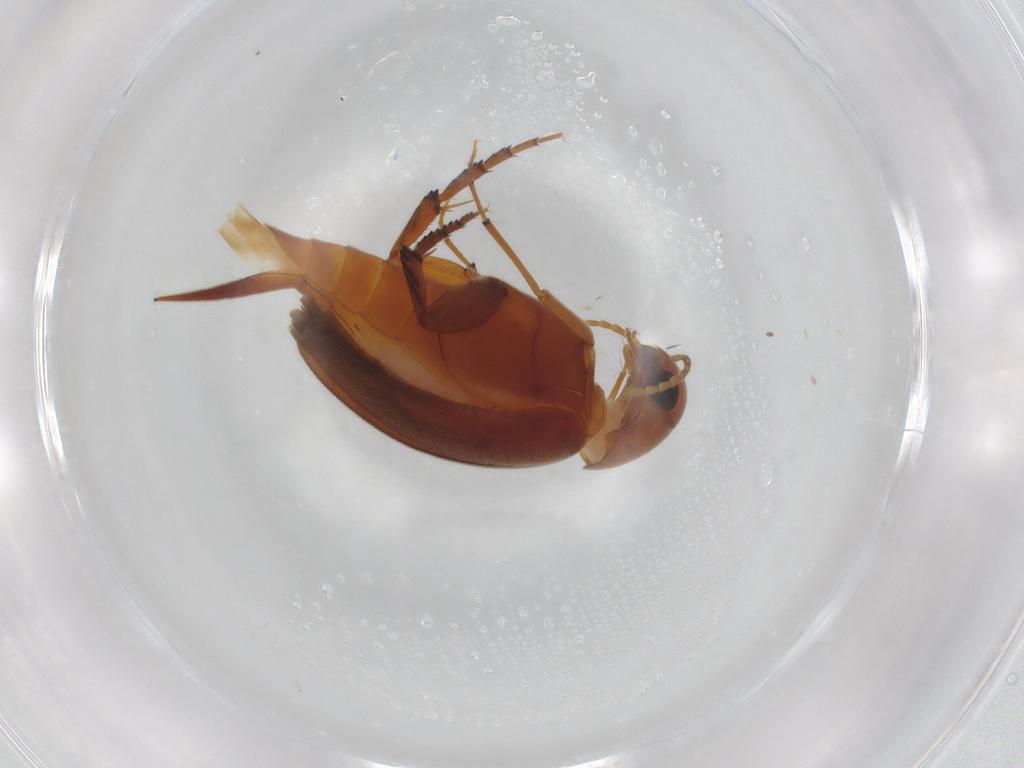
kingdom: Animalia
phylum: Arthropoda
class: Insecta
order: Coleoptera
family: Mordellidae
